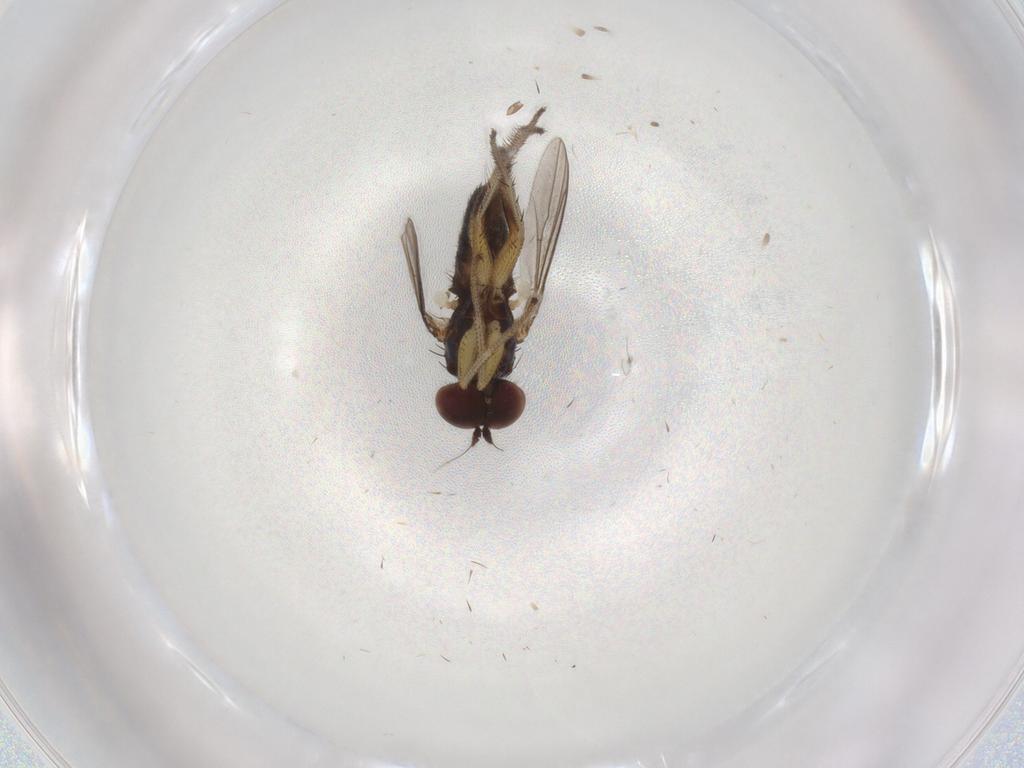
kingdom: Animalia
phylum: Arthropoda
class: Insecta
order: Diptera
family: Dolichopodidae
